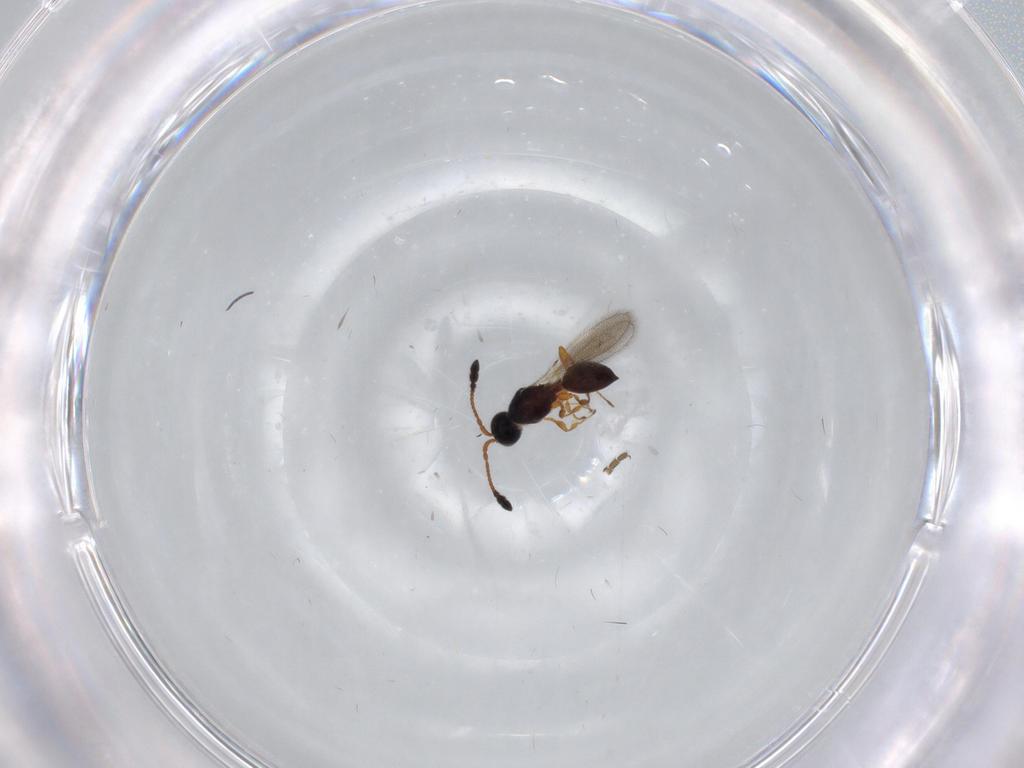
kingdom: Animalia
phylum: Arthropoda
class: Insecta
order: Hymenoptera
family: Diapriidae
